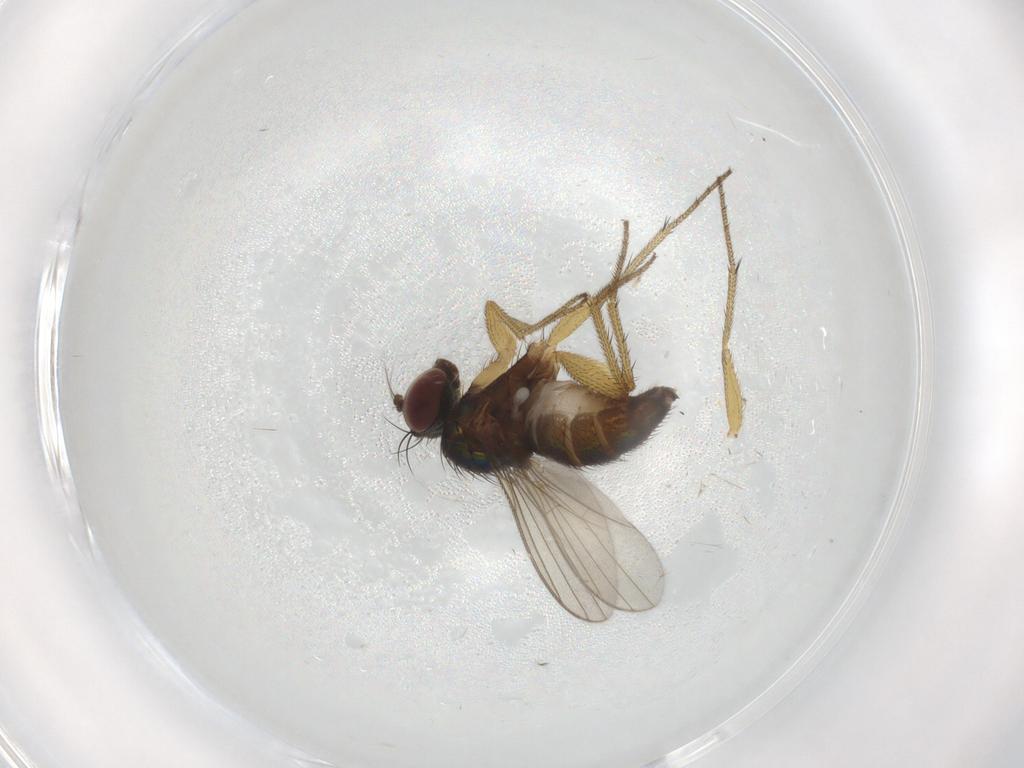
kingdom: Animalia
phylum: Arthropoda
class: Insecta
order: Diptera
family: Dolichopodidae
